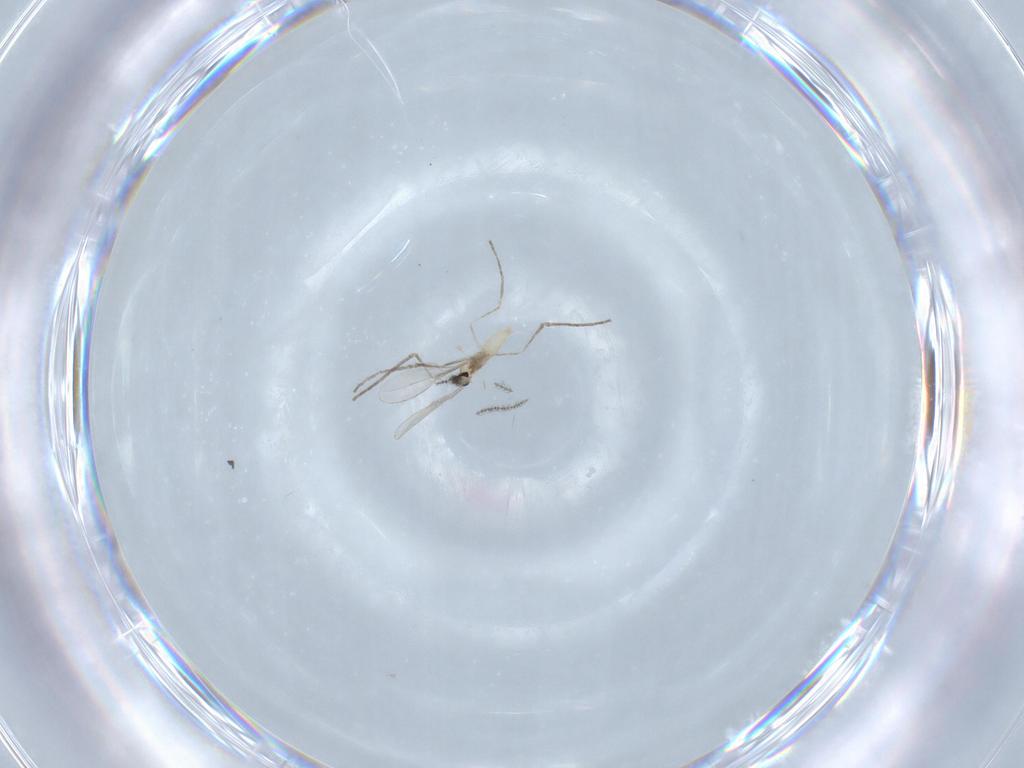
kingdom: Animalia
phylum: Arthropoda
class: Insecta
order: Diptera
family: Cecidomyiidae
